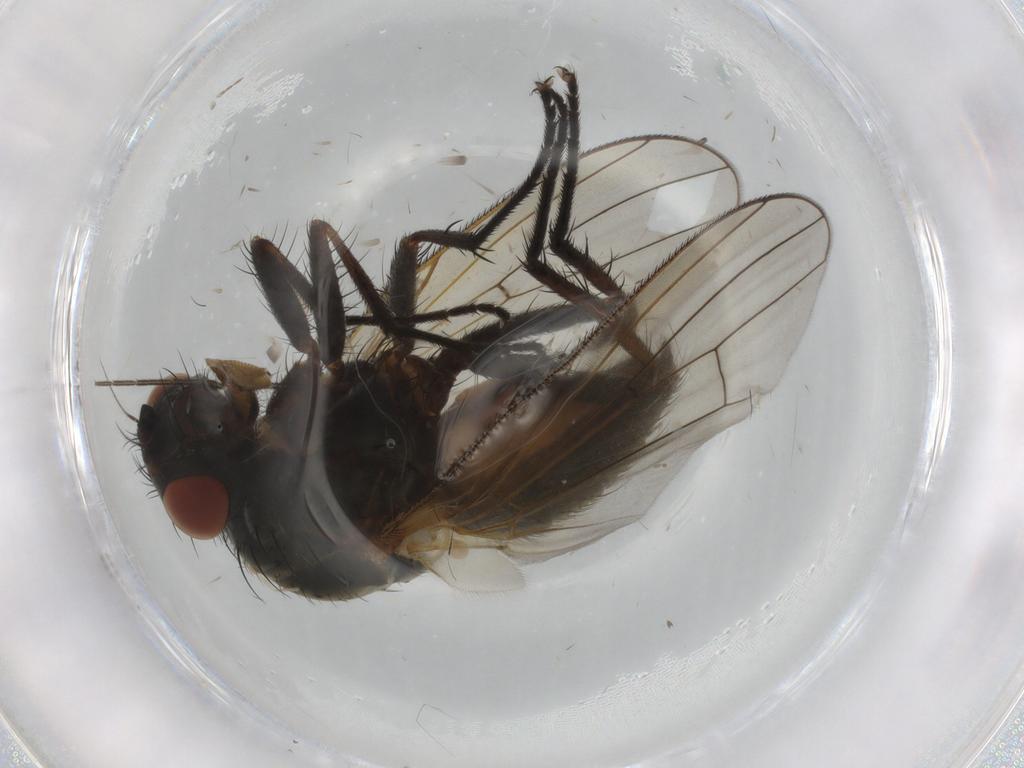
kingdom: Animalia
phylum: Arthropoda
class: Insecta
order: Diptera
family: Anthomyiidae
